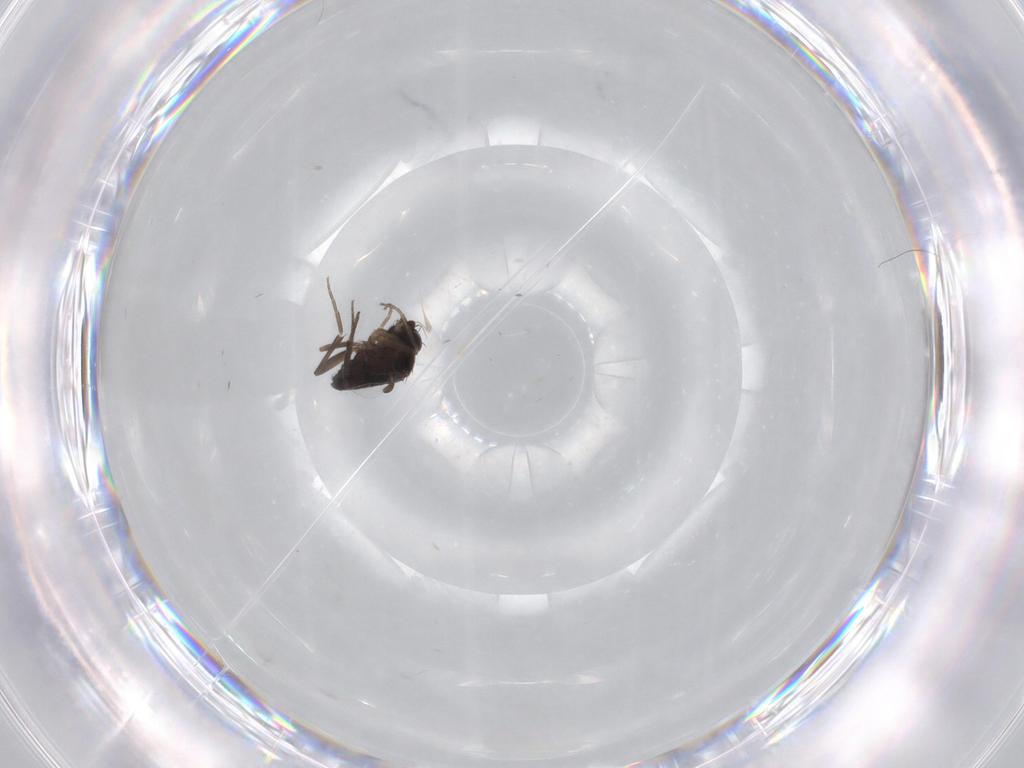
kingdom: Animalia
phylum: Arthropoda
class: Insecta
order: Diptera
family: Phoridae
